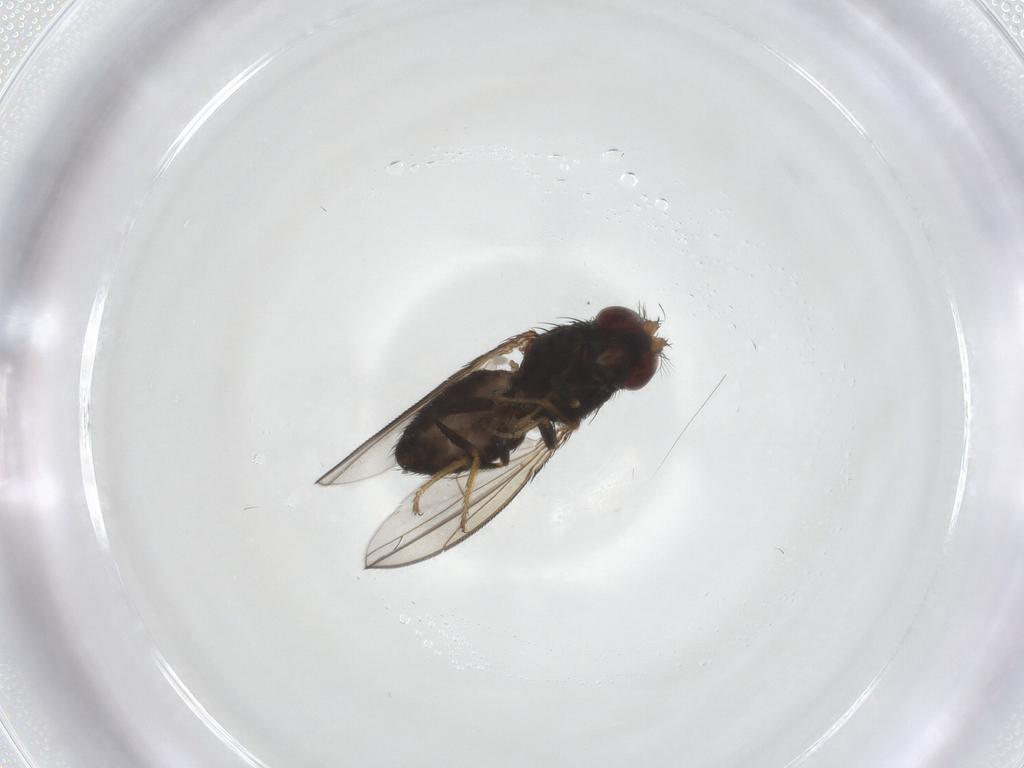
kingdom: Animalia
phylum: Arthropoda
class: Insecta
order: Diptera
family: Ephydridae
